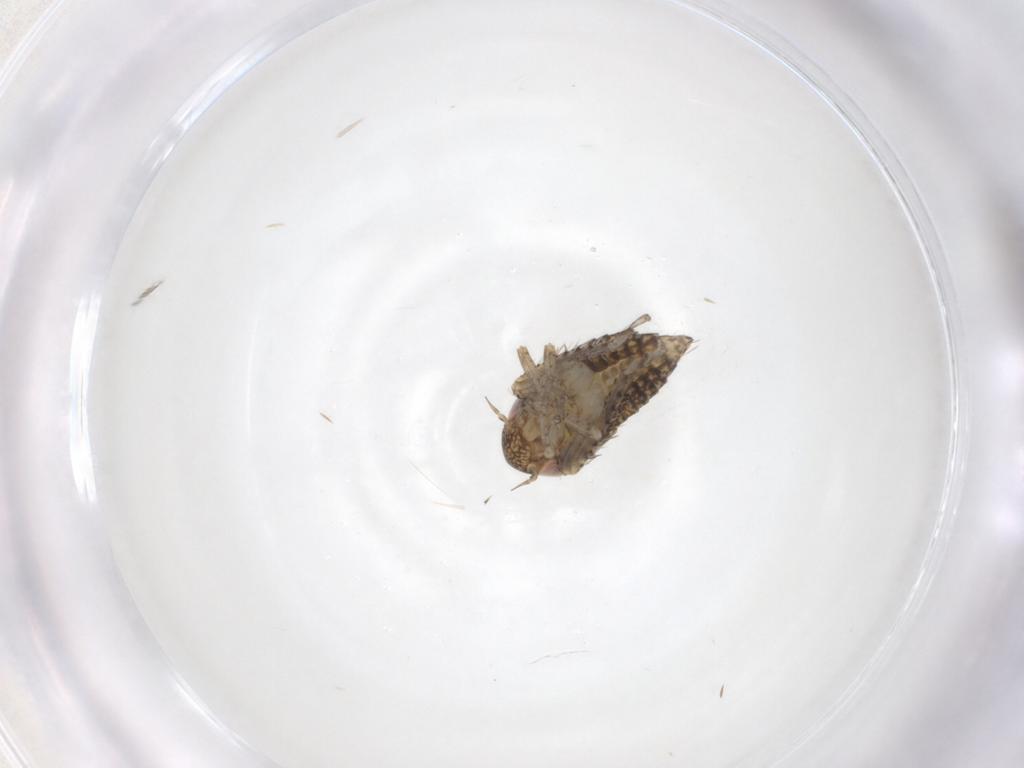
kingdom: Animalia
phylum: Arthropoda
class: Insecta
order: Hemiptera
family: Cicadellidae
